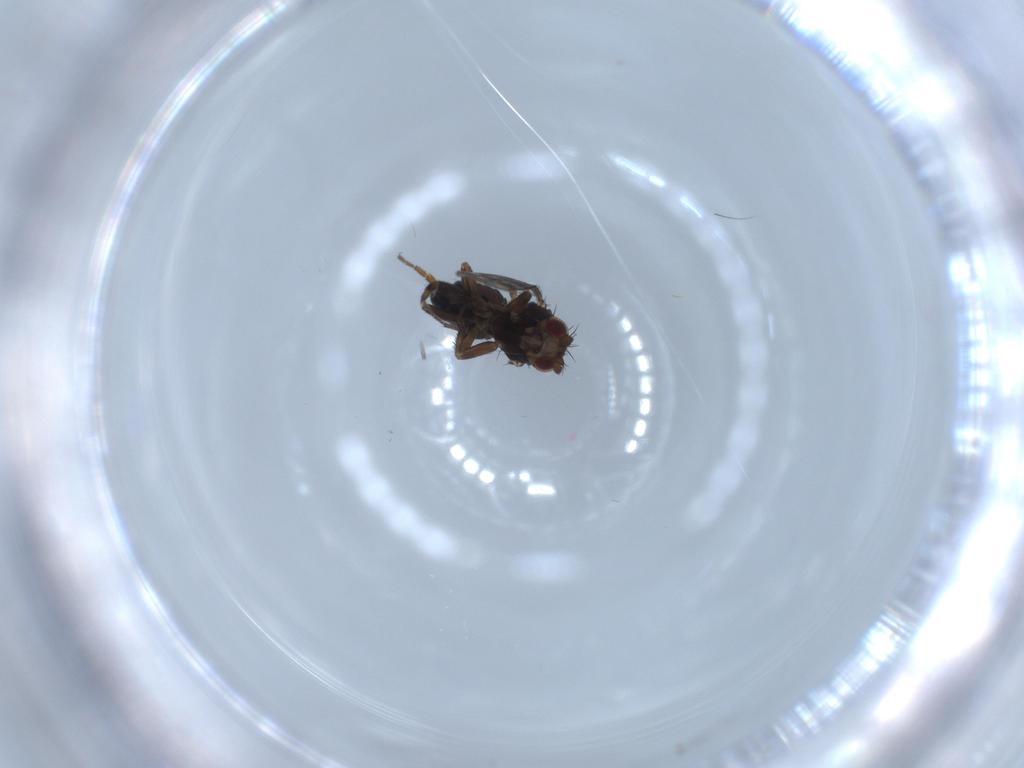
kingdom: Animalia
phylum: Arthropoda
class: Insecta
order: Diptera
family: Sphaeroceridae
